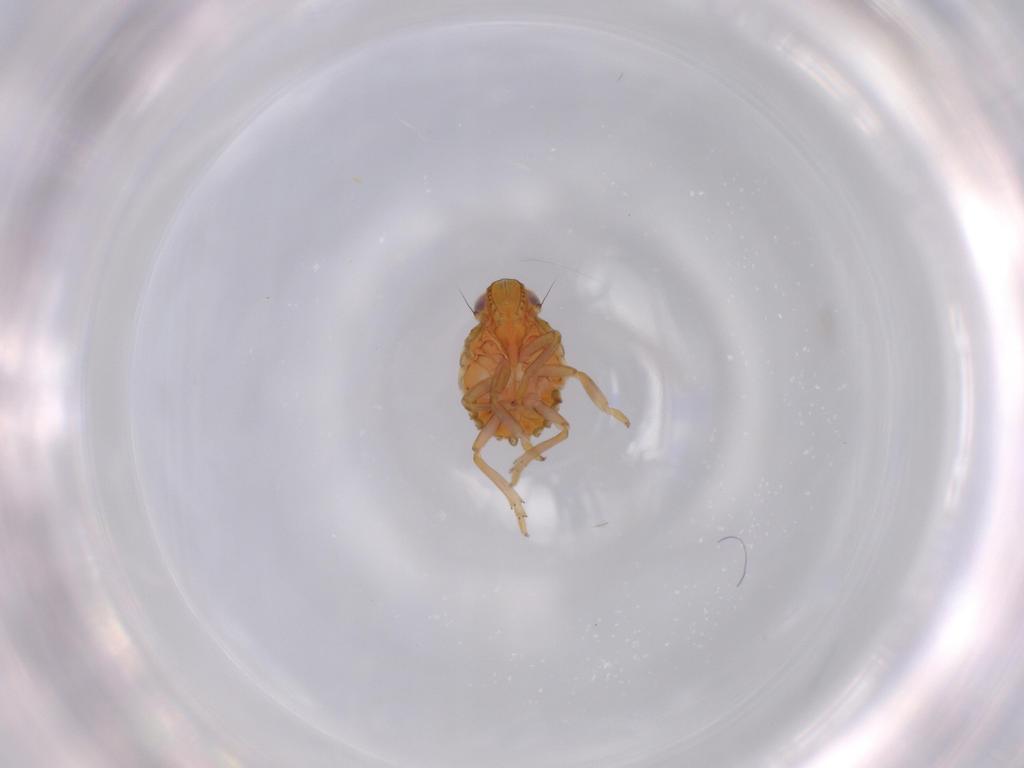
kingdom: Animalia
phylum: Arthropoda
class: Insecta
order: Hemiptera
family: Issidae
